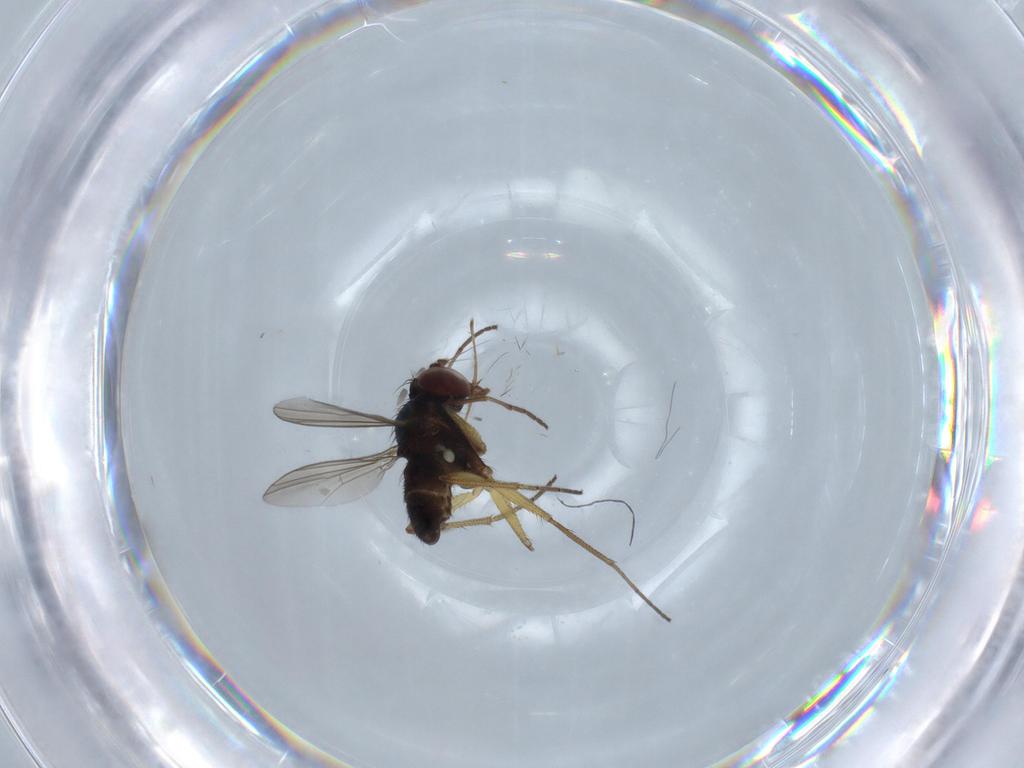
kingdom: Animalia
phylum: Arthropoda
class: Insecta
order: Diptera
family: Dolichopodidae
